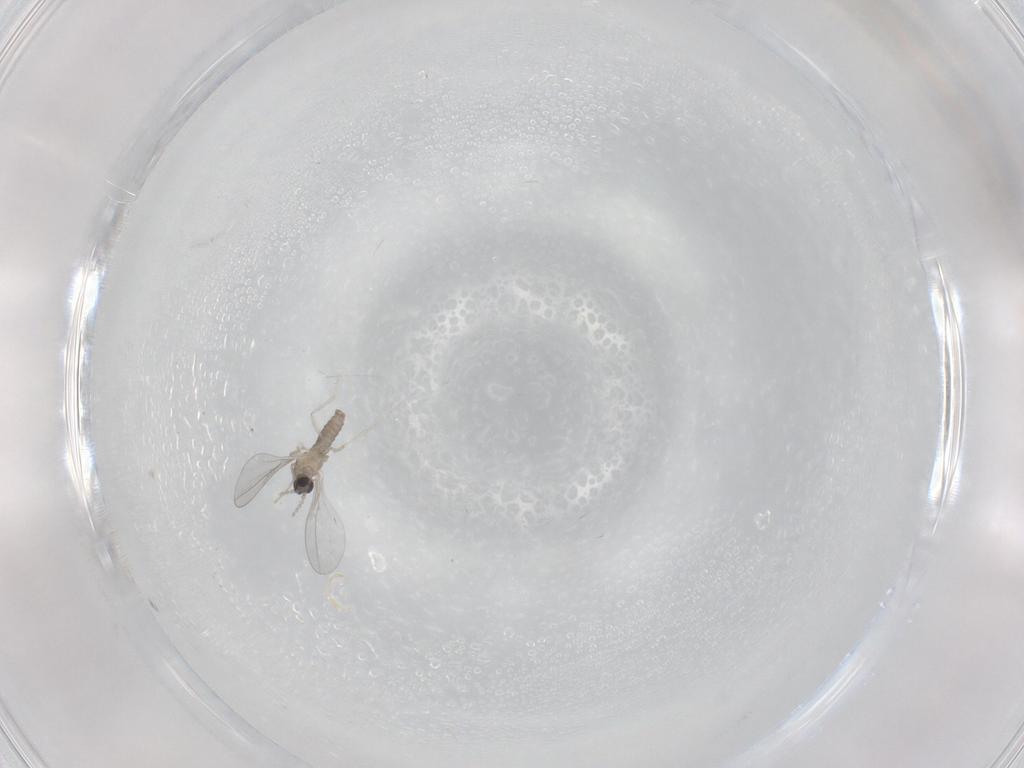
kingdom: Animalia
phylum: Arthropoda
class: Insecta
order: Diptera
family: Cecidomyiidae
